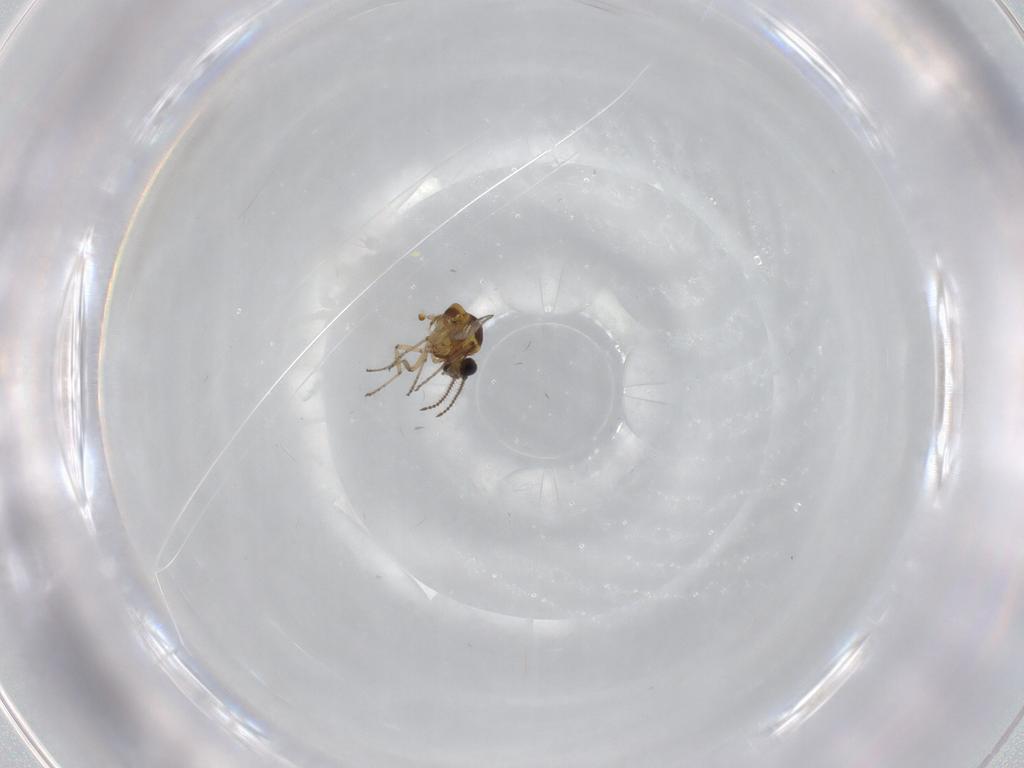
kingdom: Animalia
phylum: Arthropoda
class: Insecta
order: Diptera
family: Ceratopogonidae
